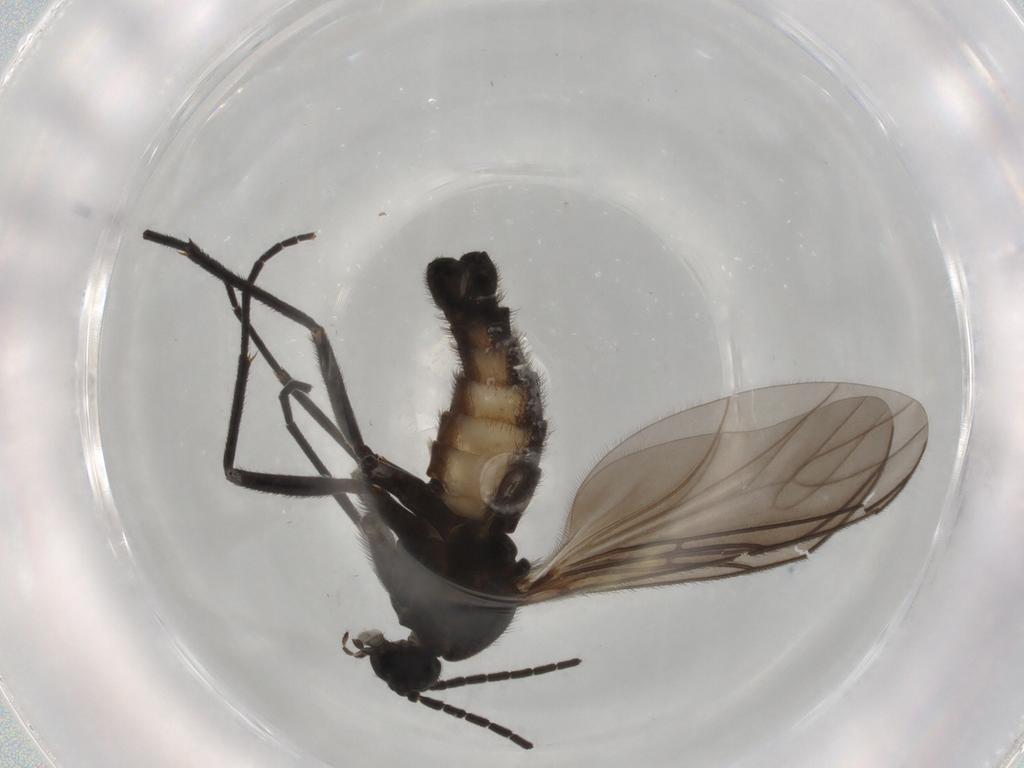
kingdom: Animalia
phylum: Arthropoda
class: Insecta
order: Diptera
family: Sciaridae
